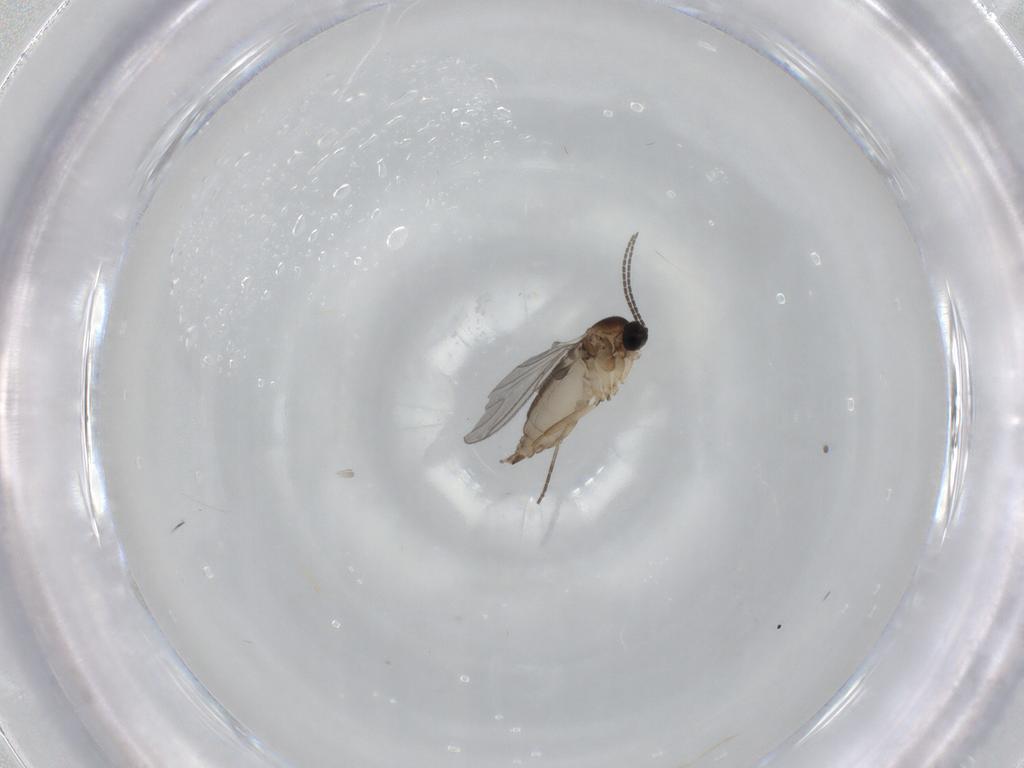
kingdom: Animalia
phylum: Arthropoda
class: Insecta
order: Diptera
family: Sciaridae
